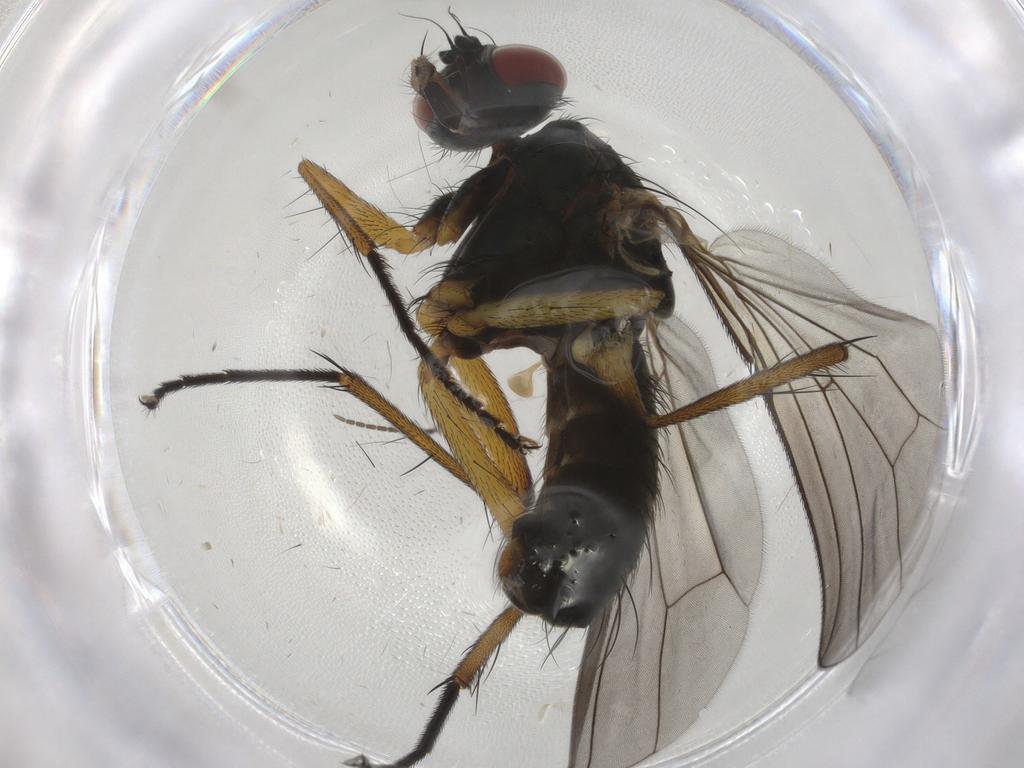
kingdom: Animalia
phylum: Arthropoda
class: Insecta
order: Diptera
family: Muscidae
